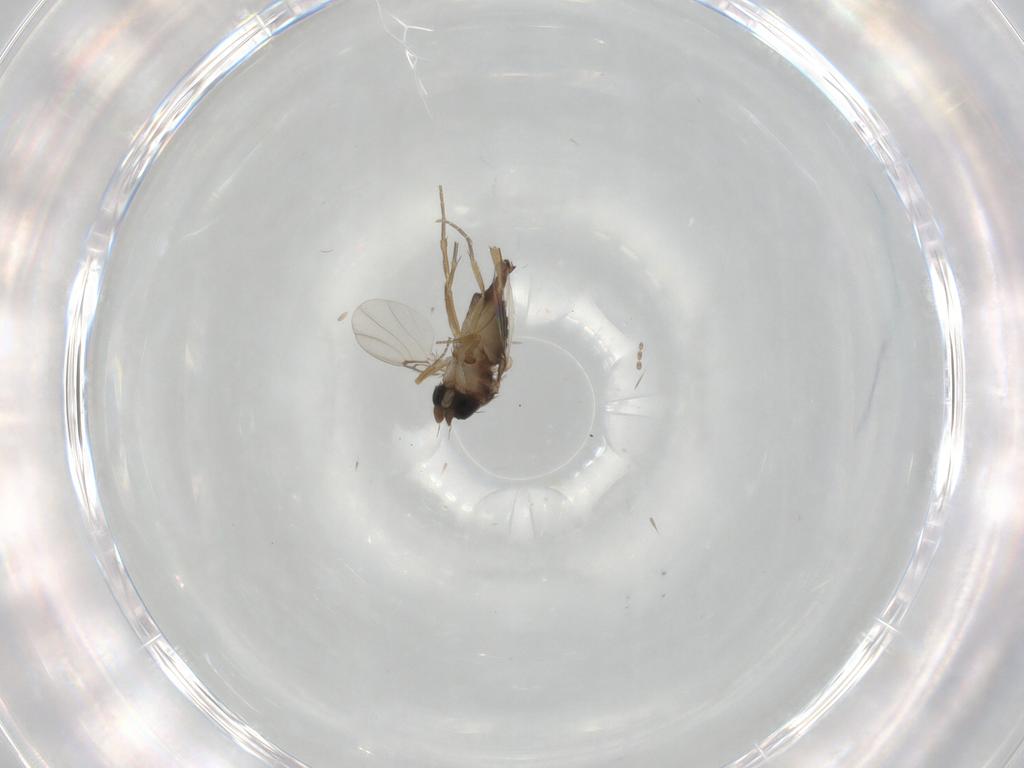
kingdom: Animalia
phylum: Arthropoda
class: Insecta
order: Diptera
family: Phoridae
